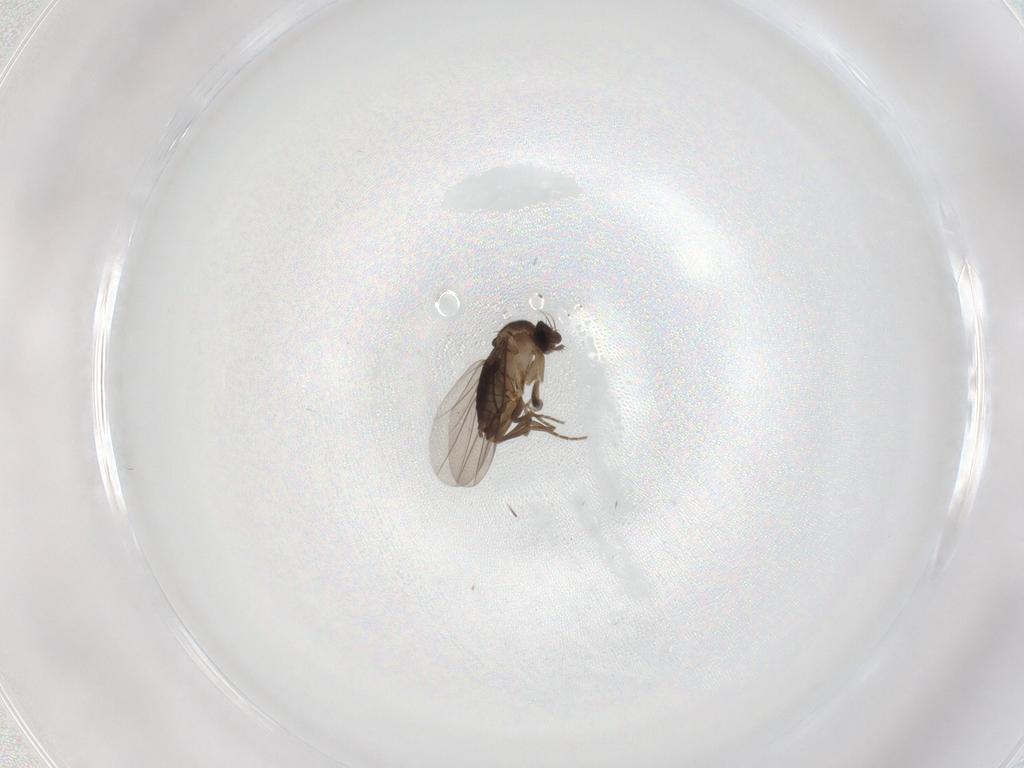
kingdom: Animalia
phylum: Arthropoda
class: Insecta
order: Diptera
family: Phoridae
